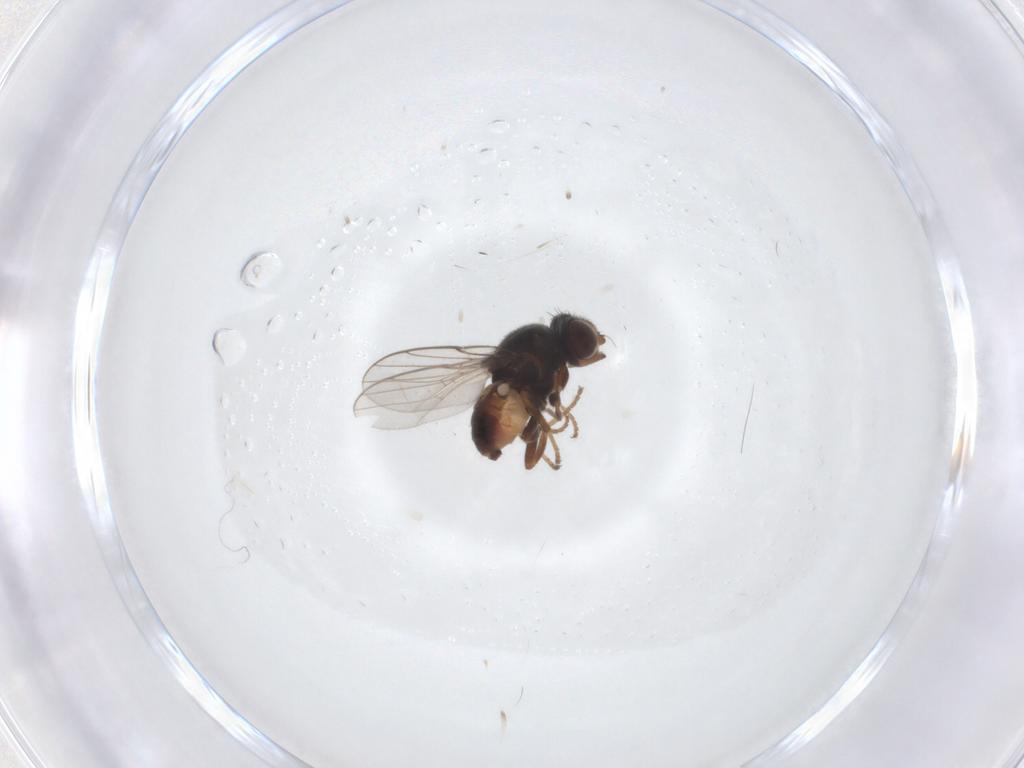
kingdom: Animalia
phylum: Arthropoda
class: Insecta
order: Diptera
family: Chloropidae
